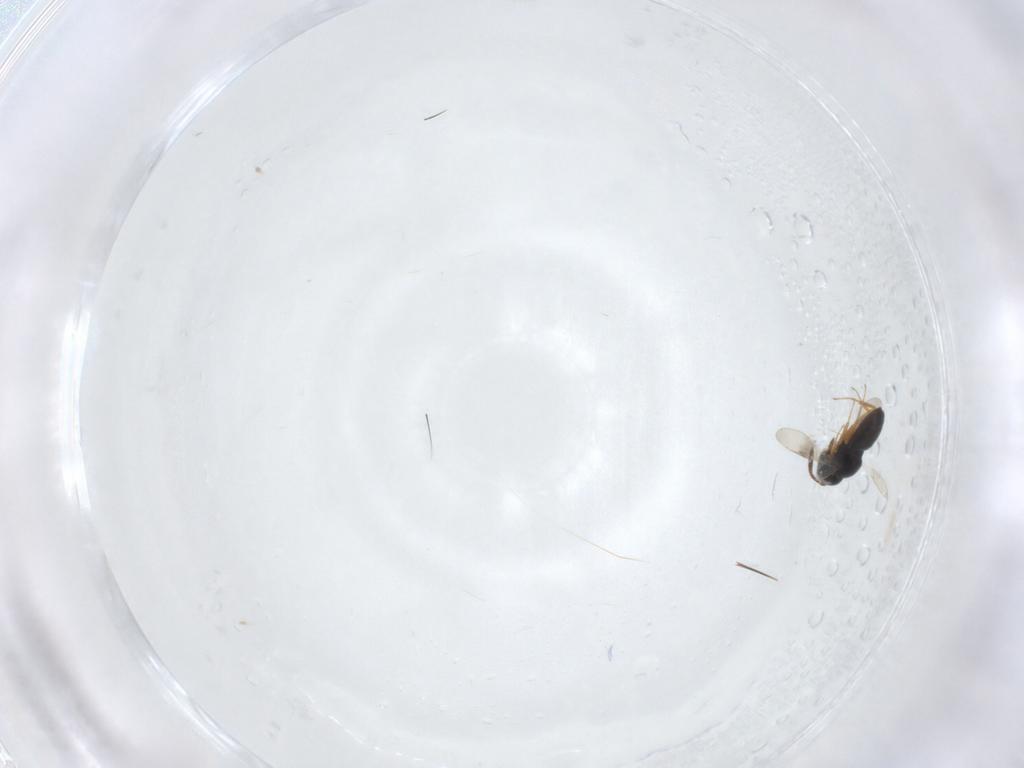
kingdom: Animalia
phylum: Arthropoda
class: Insecta
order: Hymenoptera
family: Scelionidae
